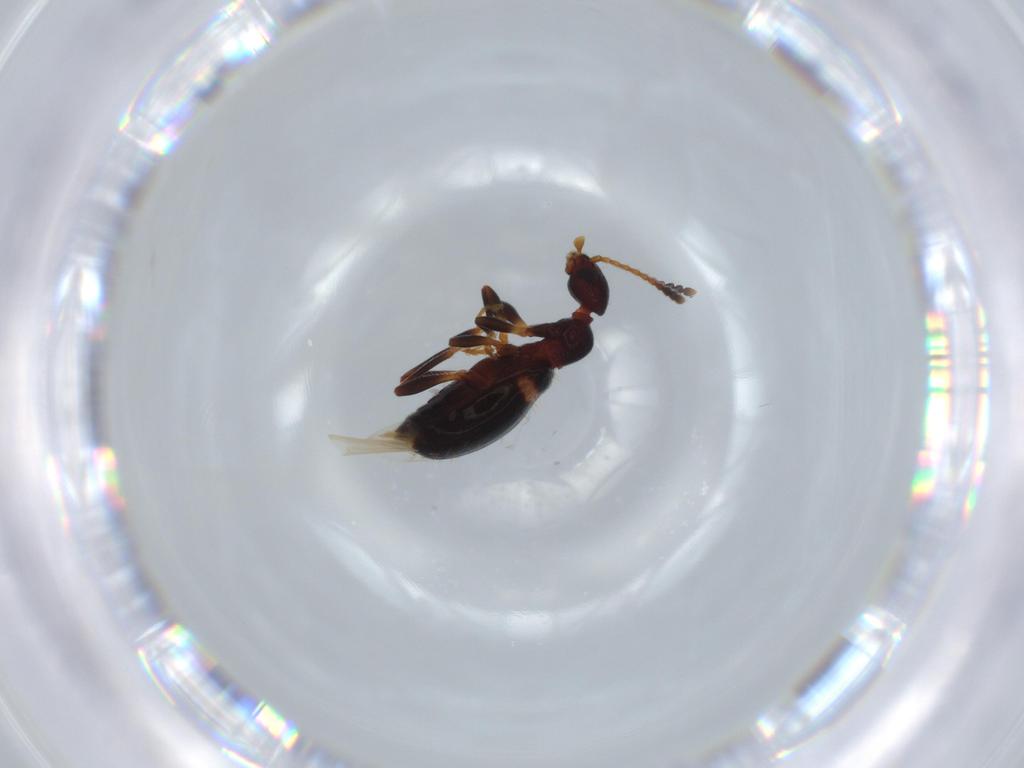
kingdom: Animalia
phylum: Arthropoda
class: Insecta
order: Coleoptera
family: Anthicidae
